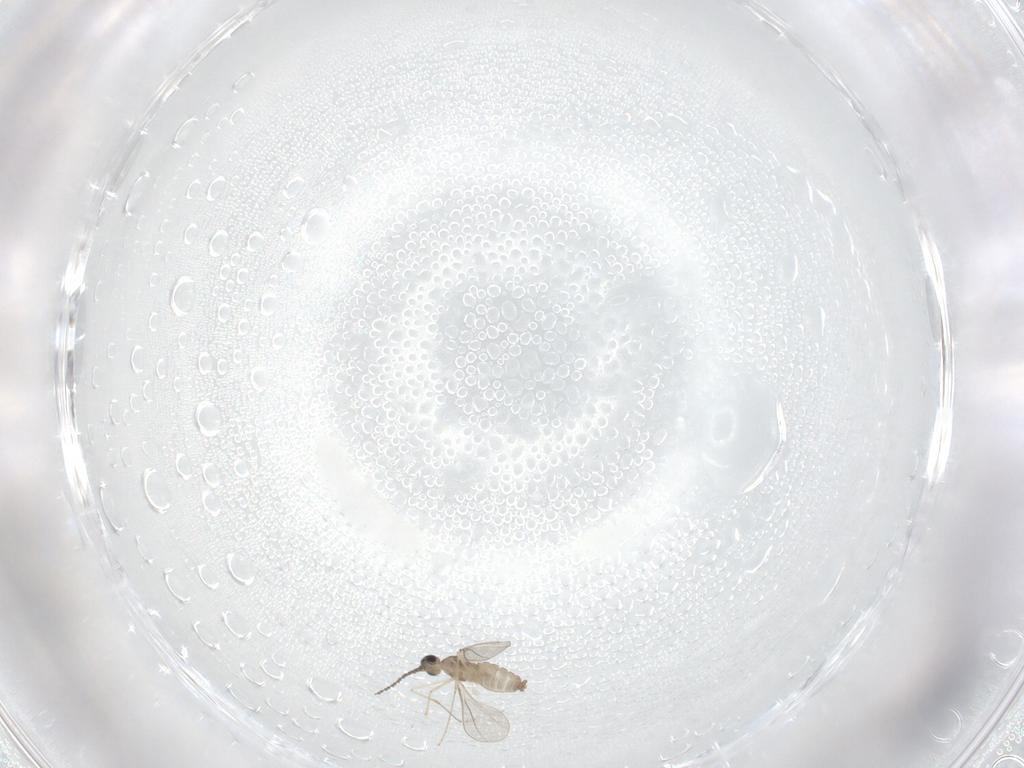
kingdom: Animalia
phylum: Arthropoda
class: Insecta
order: Diptera
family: Cecidomyiidae
